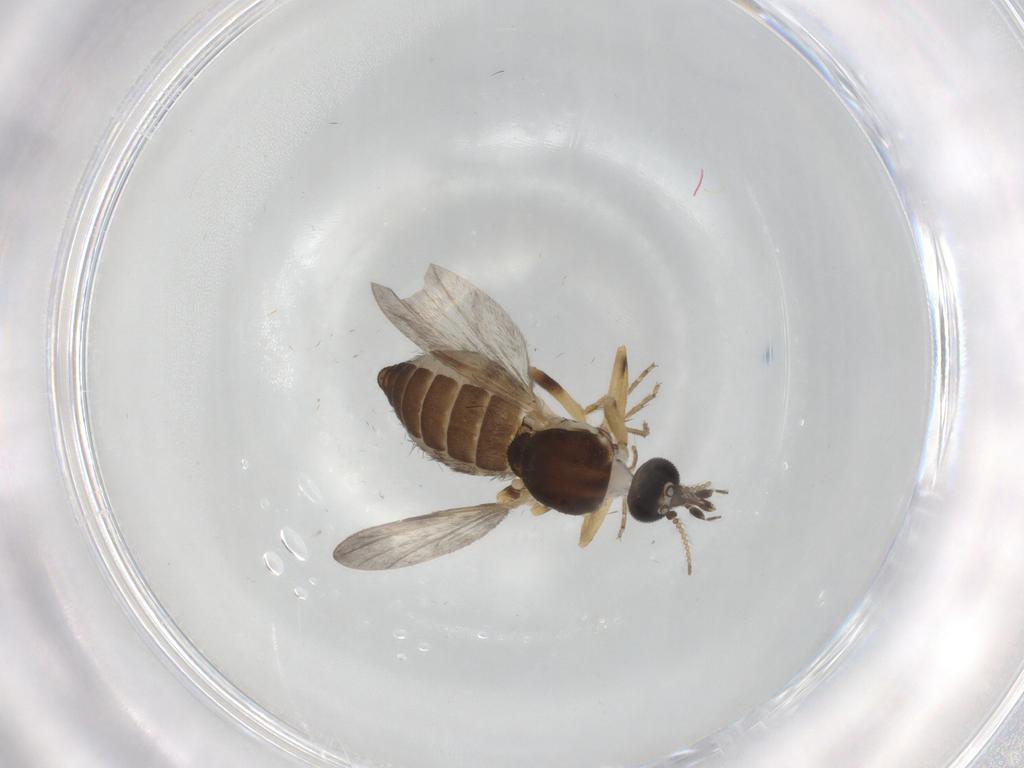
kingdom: Animalia
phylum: Arthropoda
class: Insecta
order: Diptera
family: Ceratopogonidae
